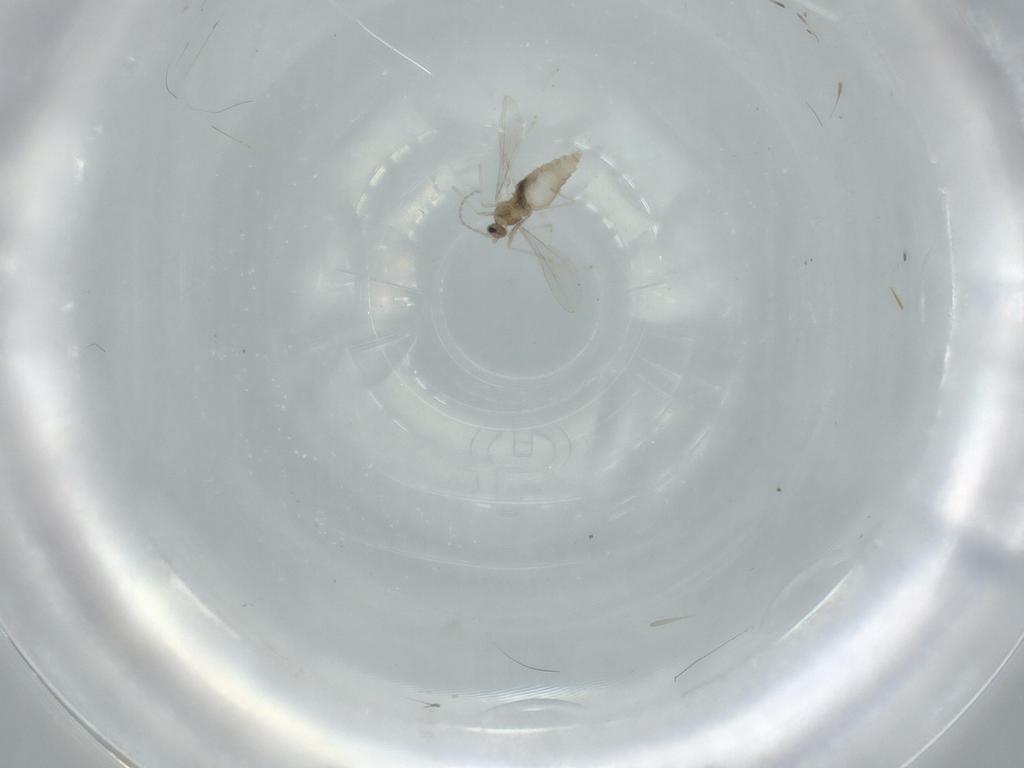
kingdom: Animalia
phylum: Arthropoda
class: Insecta
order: Diptera
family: Cecidomyiidae
